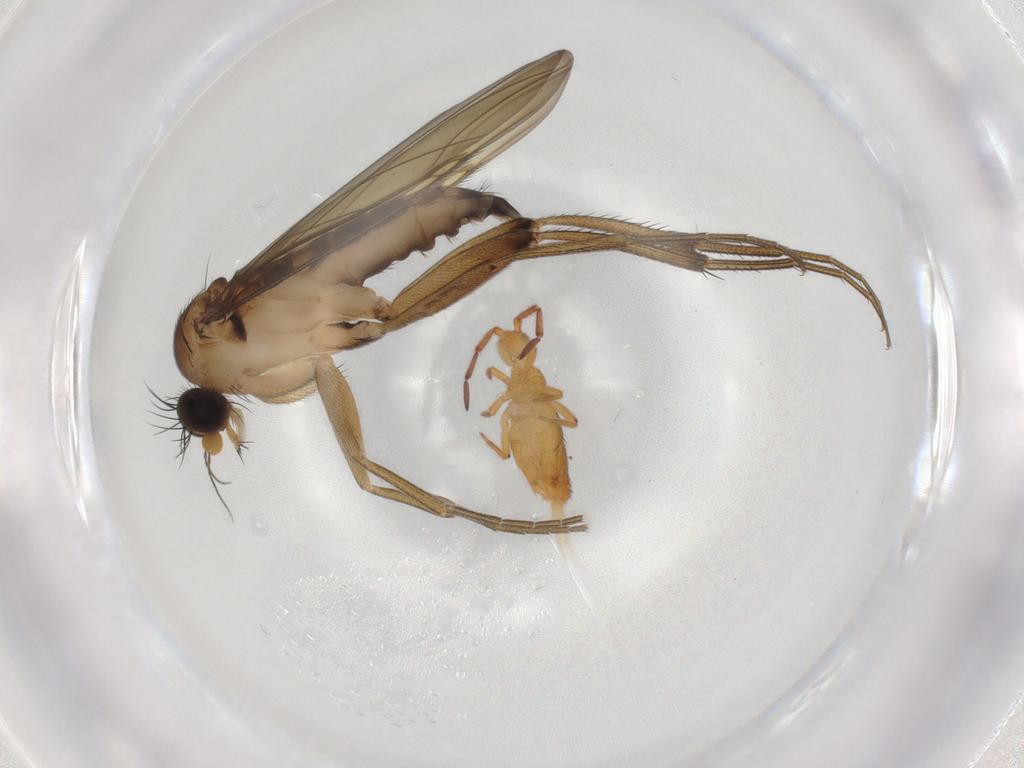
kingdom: Animalia
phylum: Arthropoda
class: Insecta
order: Diptera
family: Phoridae
